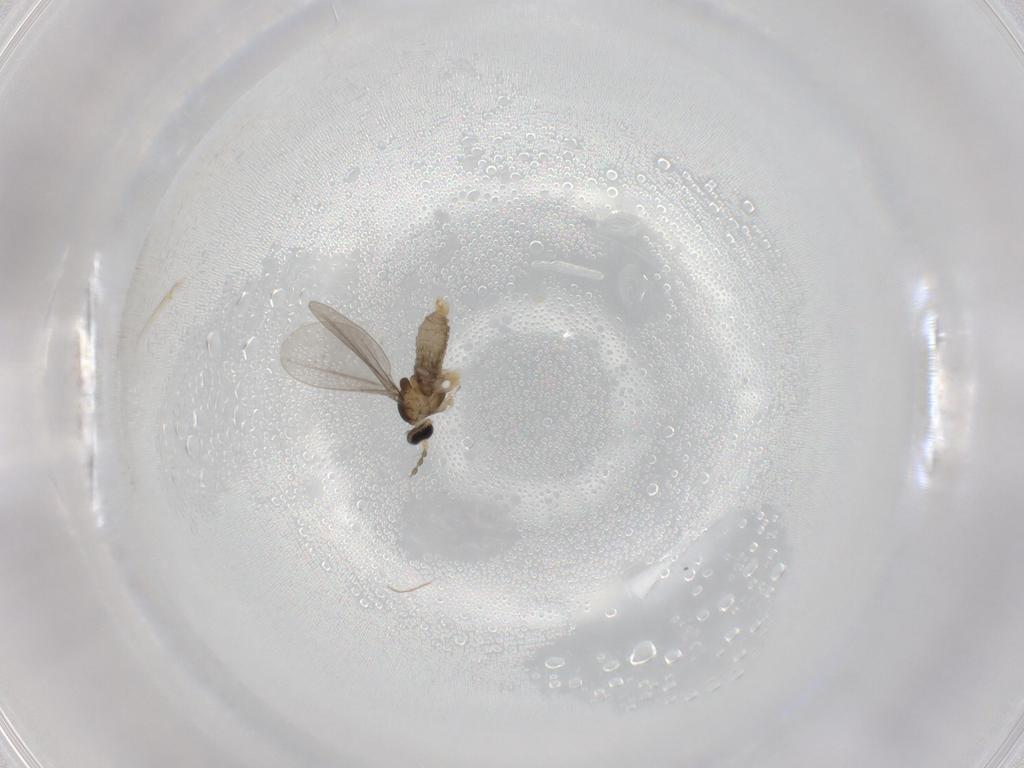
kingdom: Animalia
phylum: Arthropoda
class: Insecta
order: Diptera
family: Cecidomyiidae
